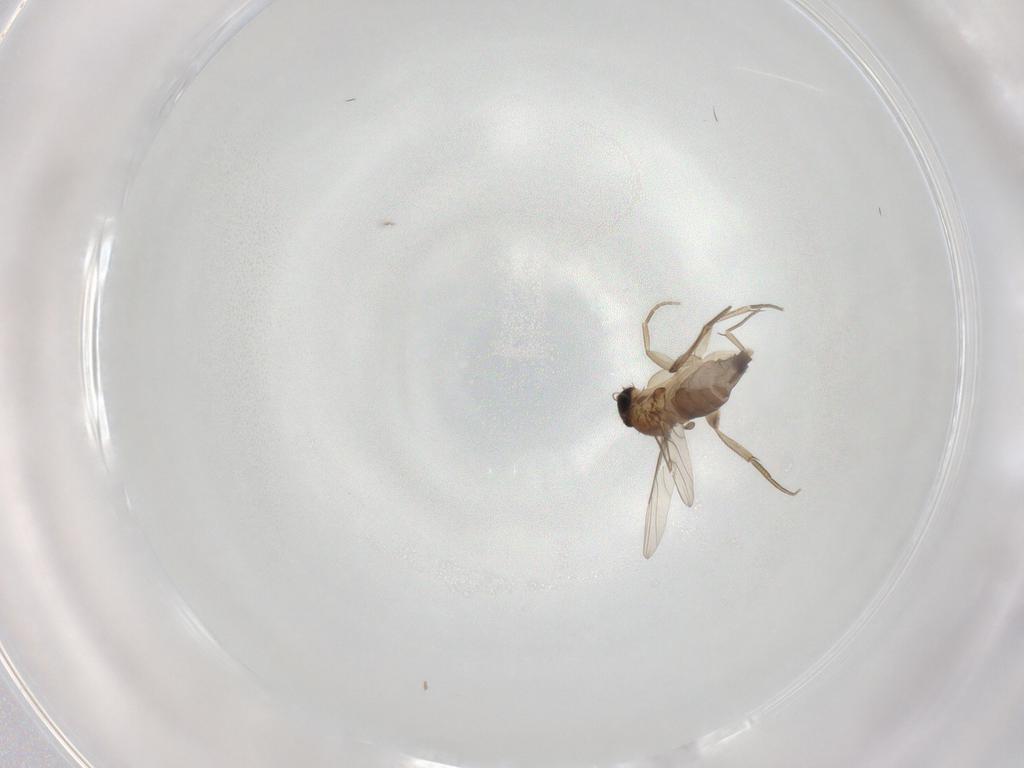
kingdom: Animalia
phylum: Arthropoda
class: Insecta
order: Diptera
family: Phoridae
